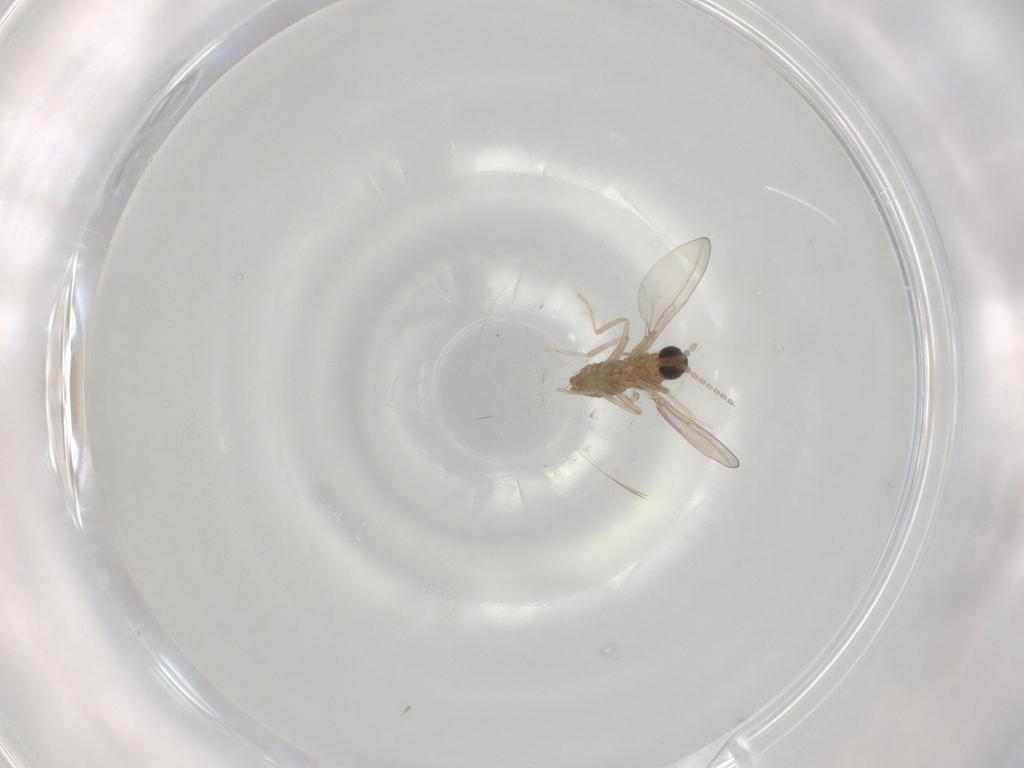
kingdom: Animalia
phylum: Arthropoda
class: Insecta
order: Diptera
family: Cecidomyiidae
